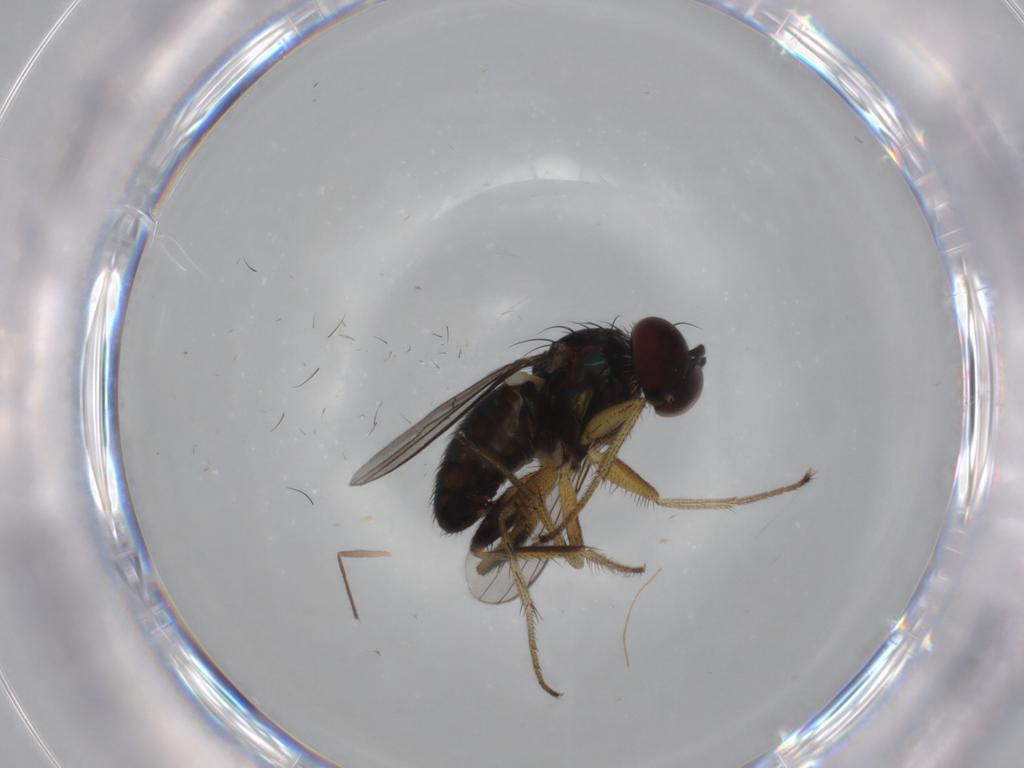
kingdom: Animalia
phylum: Arthropoda
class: Insecta
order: Diptera
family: Dolichopodidae
